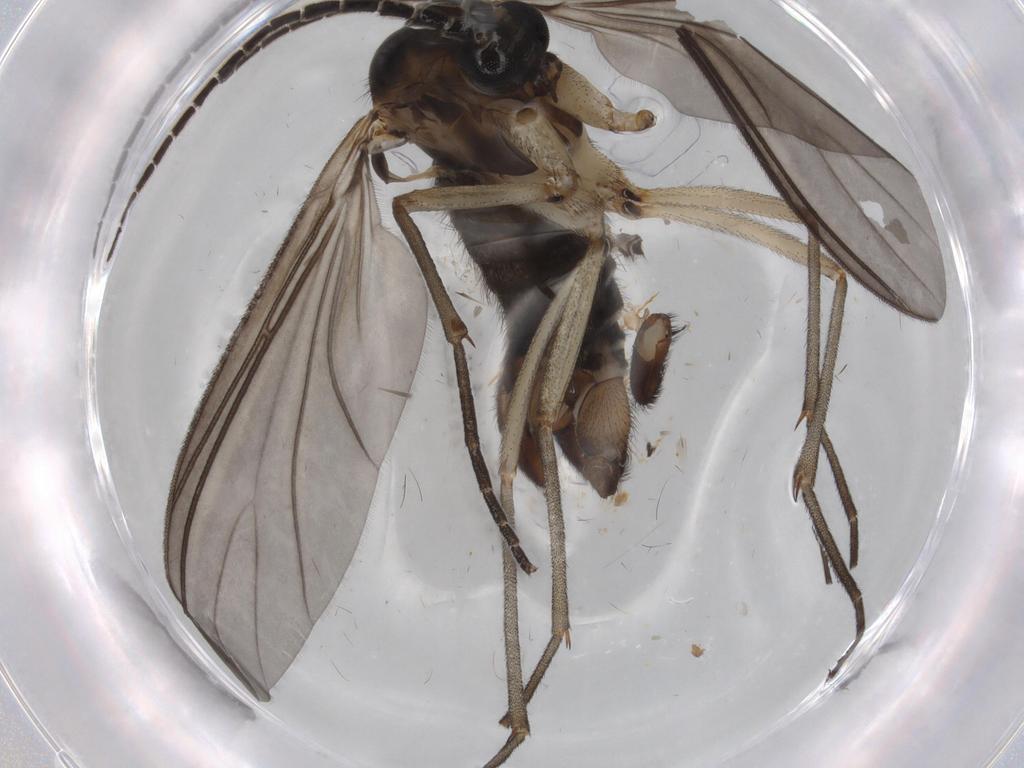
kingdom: Animalia
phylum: Arthropoda
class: Insecta
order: Diptera
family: Sciaridae
